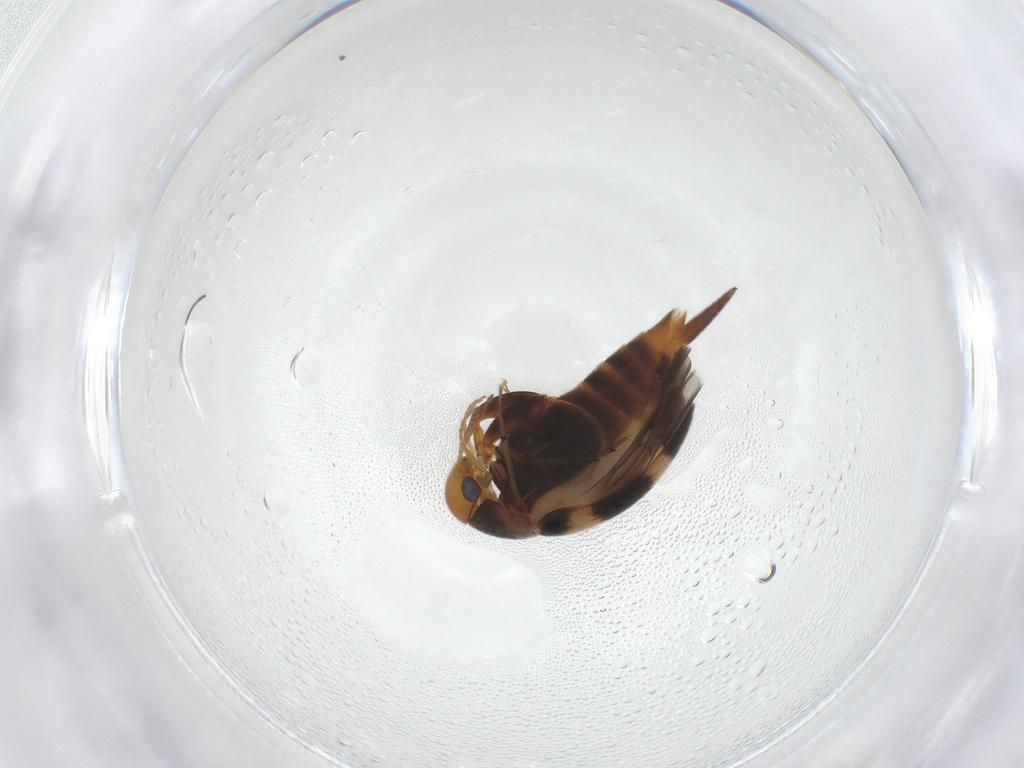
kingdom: Animalia
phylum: Arthropoda
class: Insecta
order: Coleoptera
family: Mordellidae
